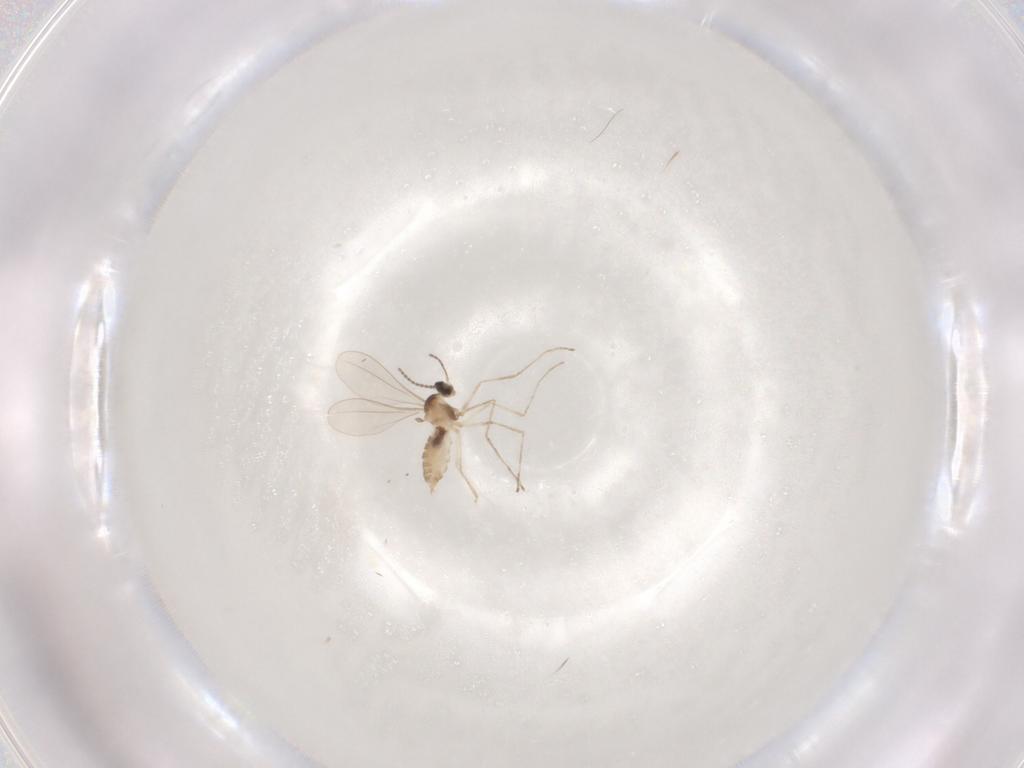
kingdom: Animalia
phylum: Arthropoda
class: Insecta
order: Diptera
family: Cecidomyiidae
